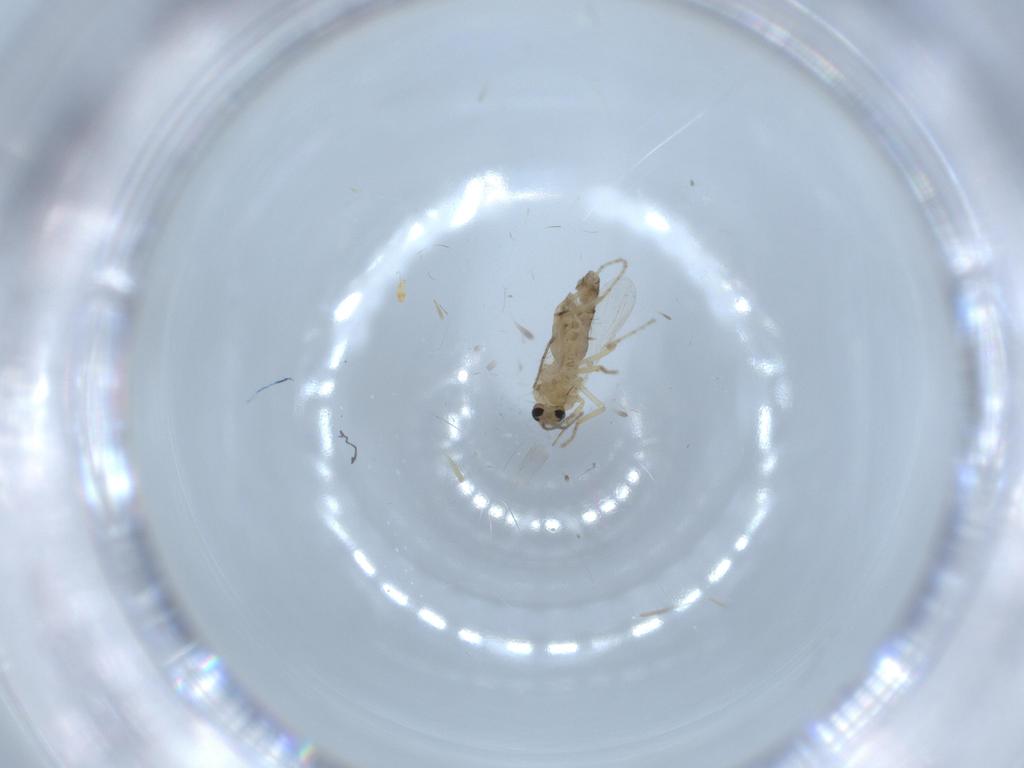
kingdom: Animalia
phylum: Arthropoda
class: Insecta
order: Diptera
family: Ceratopogonidae
